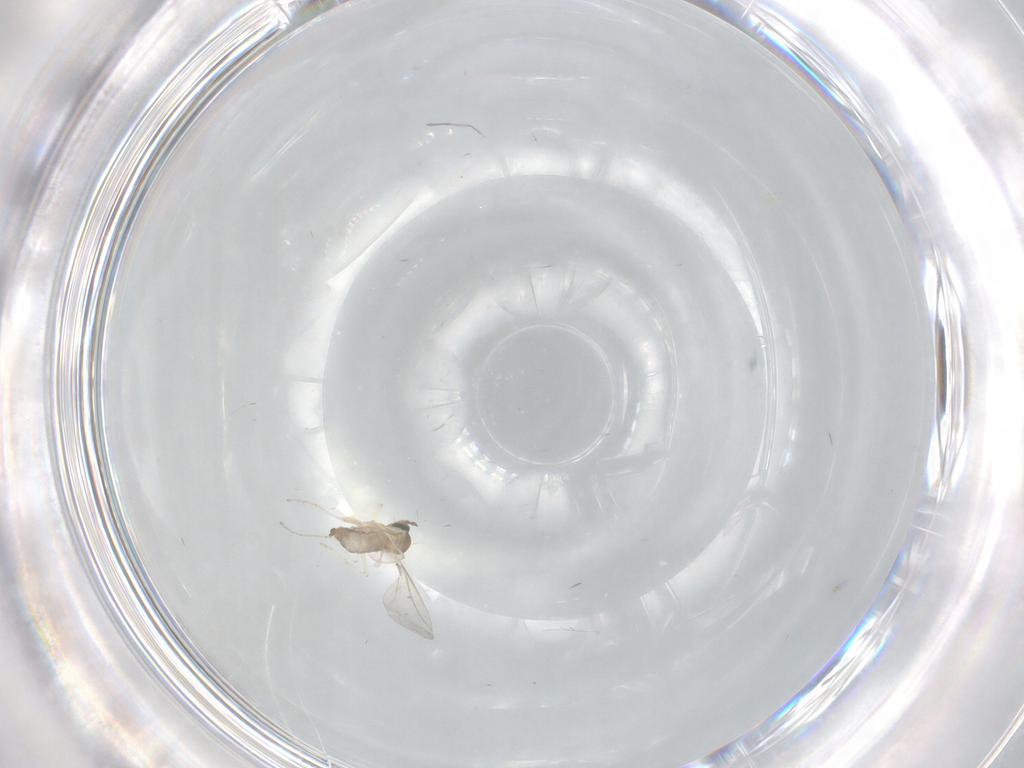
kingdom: Animalia
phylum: Arthropoda
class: Insecta
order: Diptera
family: Cecidomyiidae
